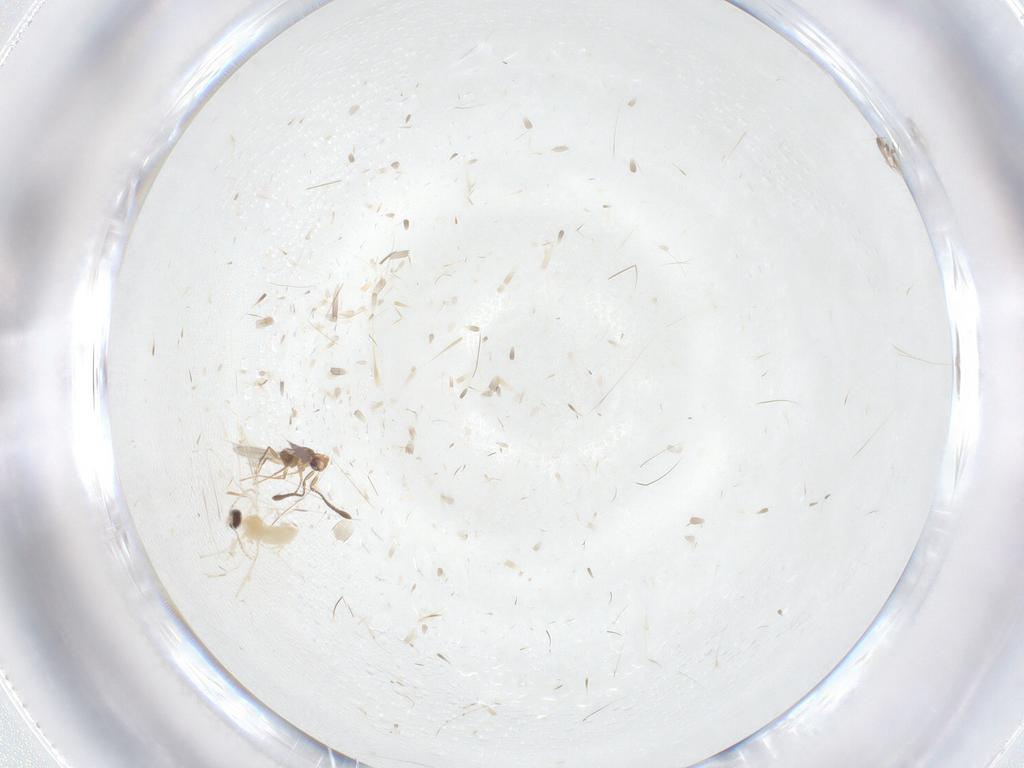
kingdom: Animalia
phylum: Arthropoda
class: Insecta
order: Diptera
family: Cecidomyiidae
